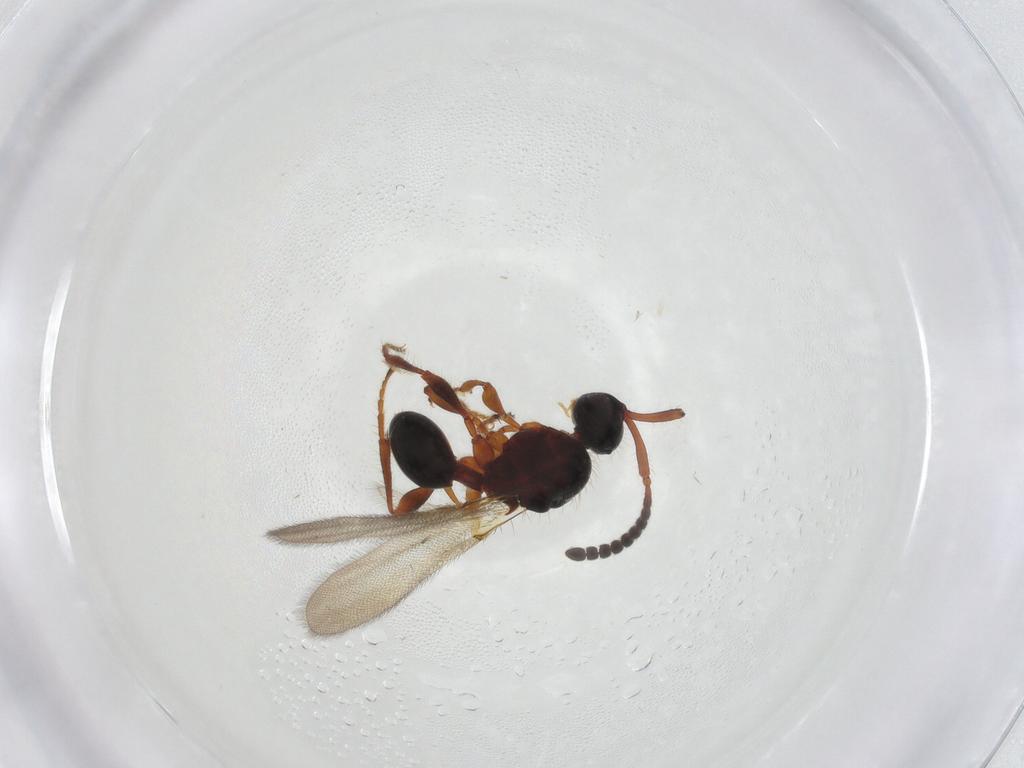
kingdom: Animalia
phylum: Arthropoda
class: Insecta
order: Hymenoptera
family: Diapriidae
